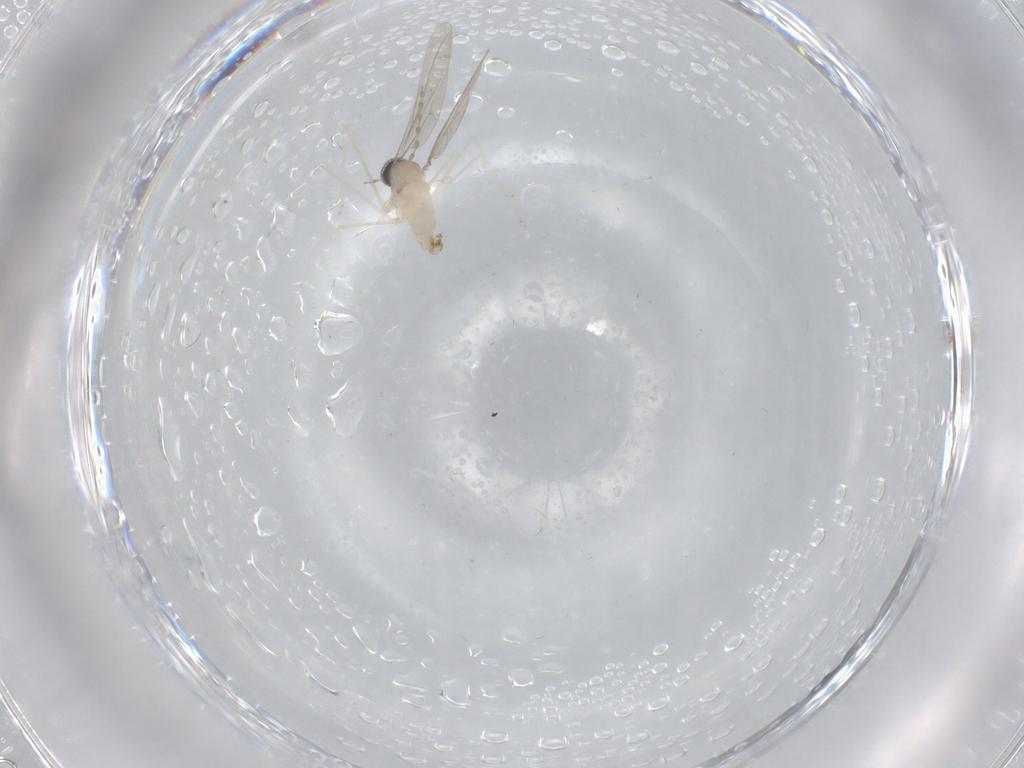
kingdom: Animalia
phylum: Arthropoda
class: Insecta
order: Diptera
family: Cecidomyiidae
